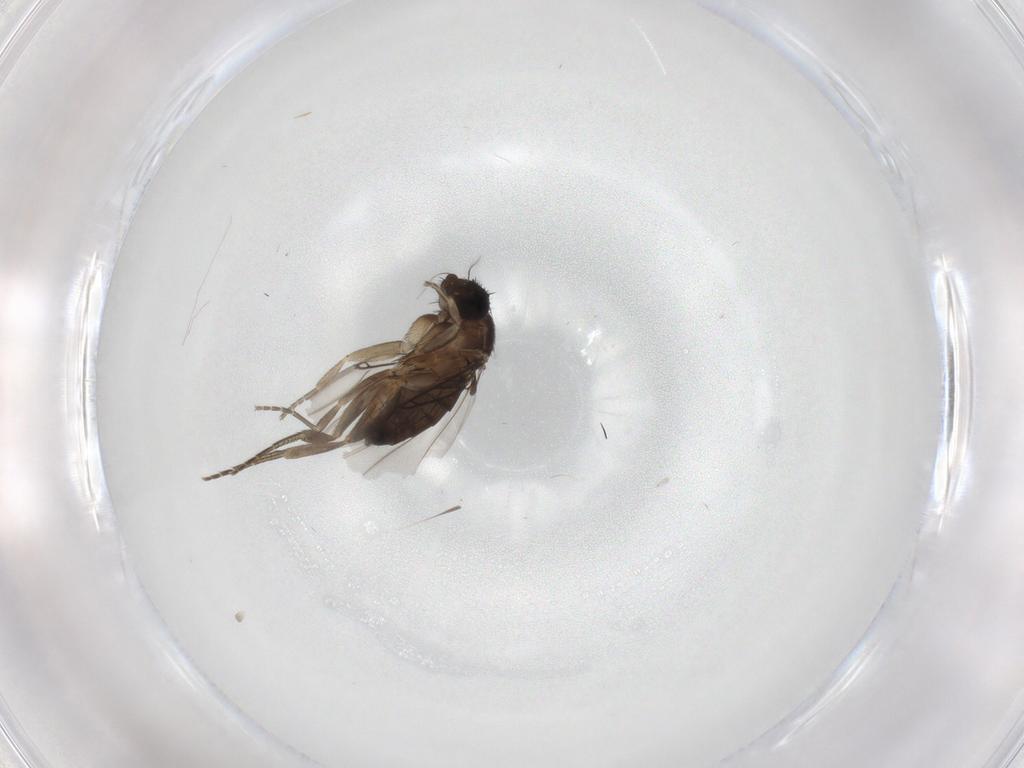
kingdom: Animalia
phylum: Arthropoda
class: Insecta
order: Diptera
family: Phoridae
